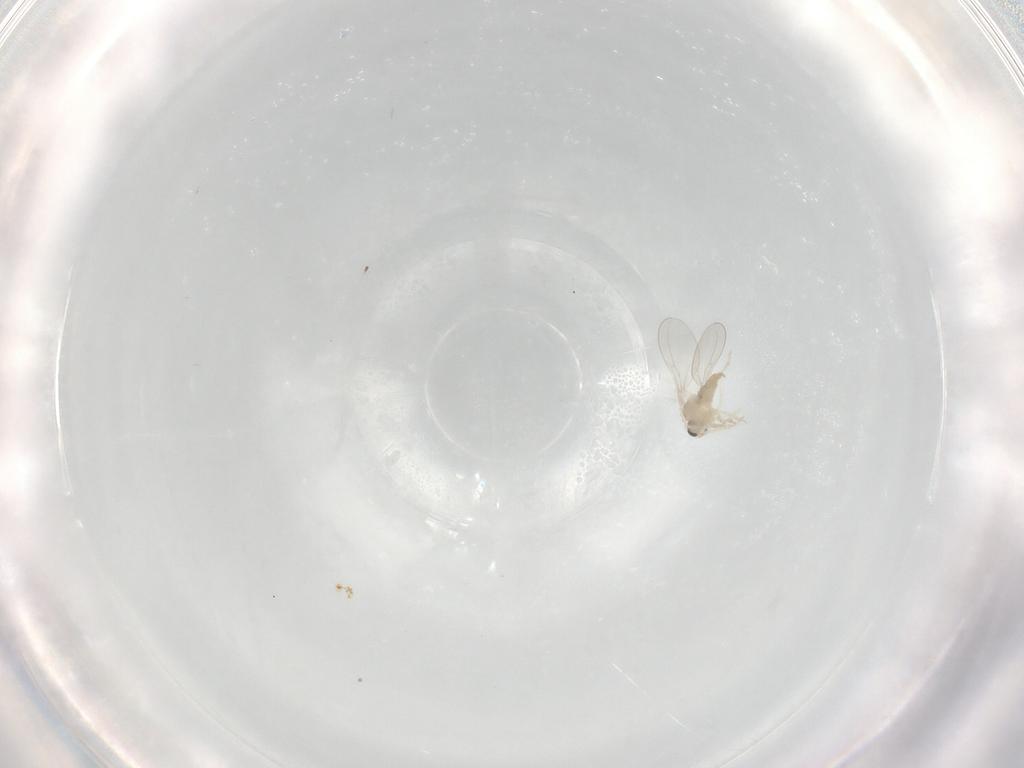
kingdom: Animalia
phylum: Arthropoda
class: Insecta
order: Diptera
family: Cecidomyiidae
